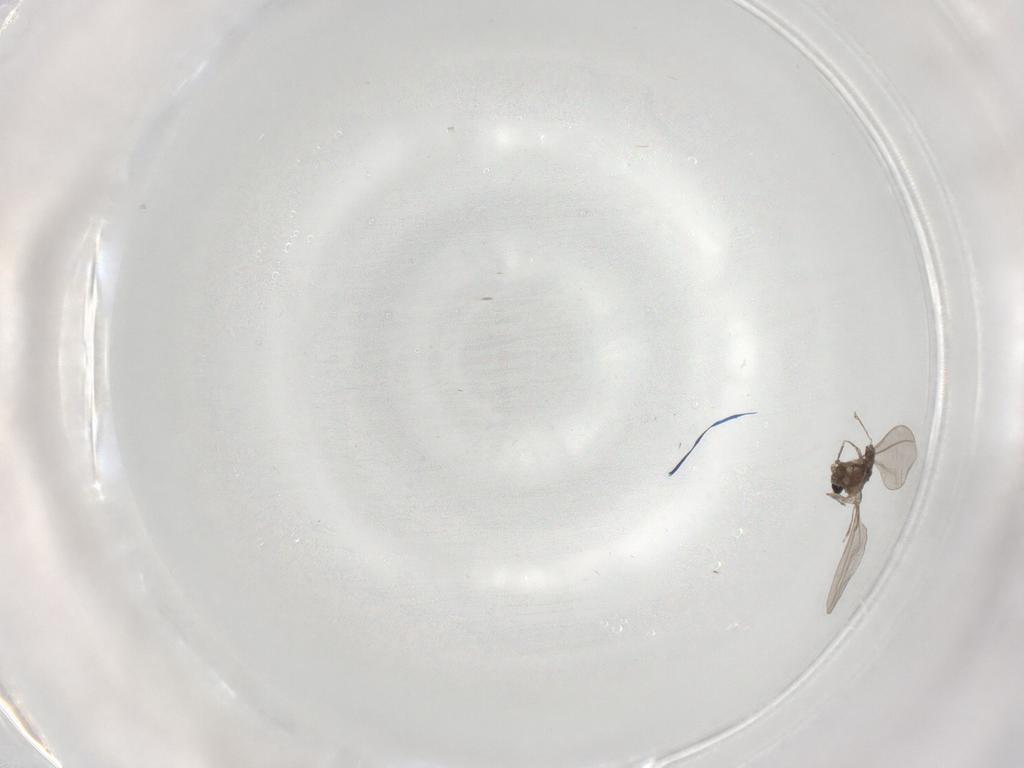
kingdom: Animalia
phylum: Arthropoda
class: Insecta
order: Diptera
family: Cecidomyiidae
